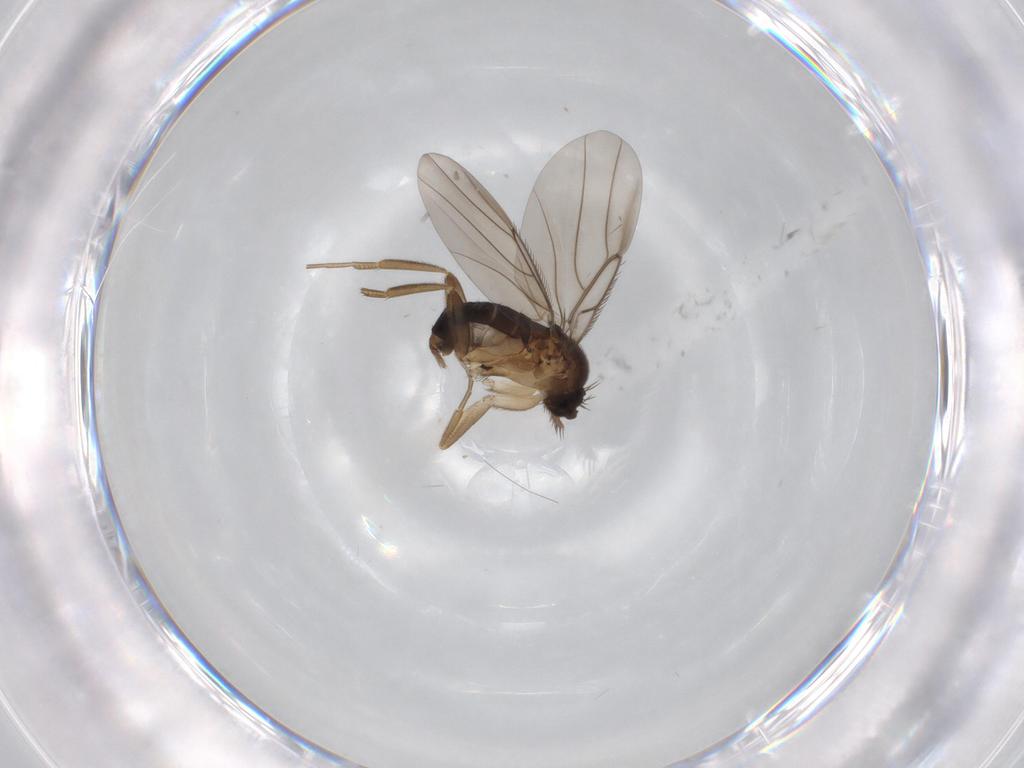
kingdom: Animalia
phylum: Arthropoda
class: Insecta
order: Diptera
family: Phoridae
